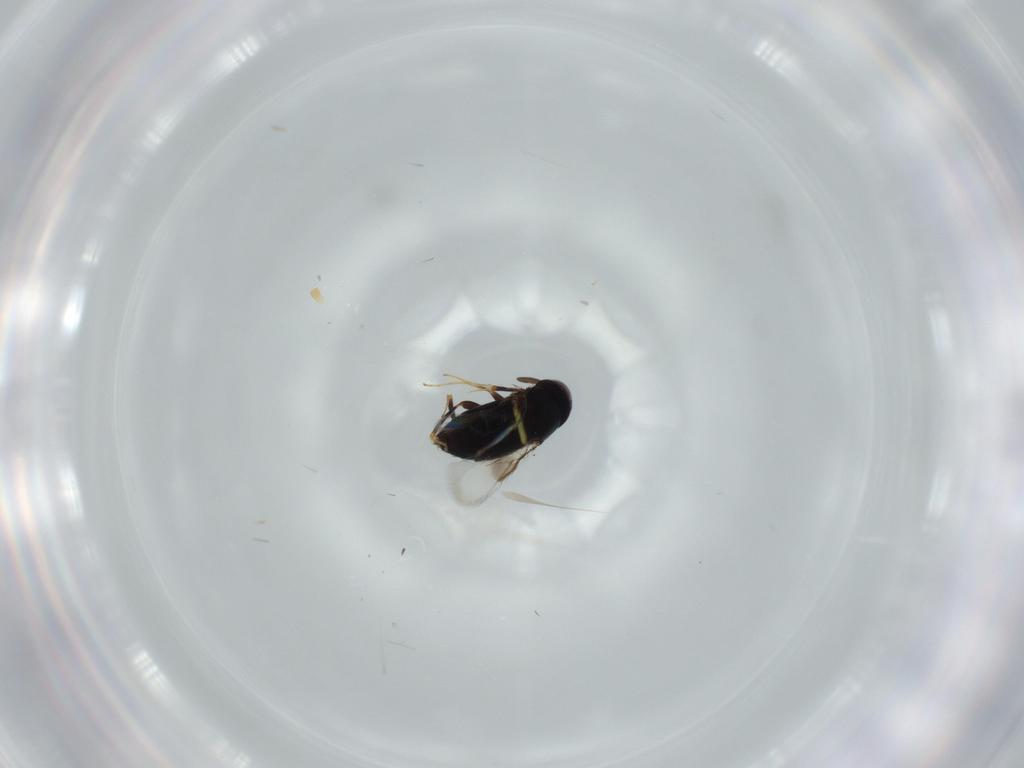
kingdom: Animalia
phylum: Arthropoda
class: Insecta
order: Hymenoptera
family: Signiphoridae
